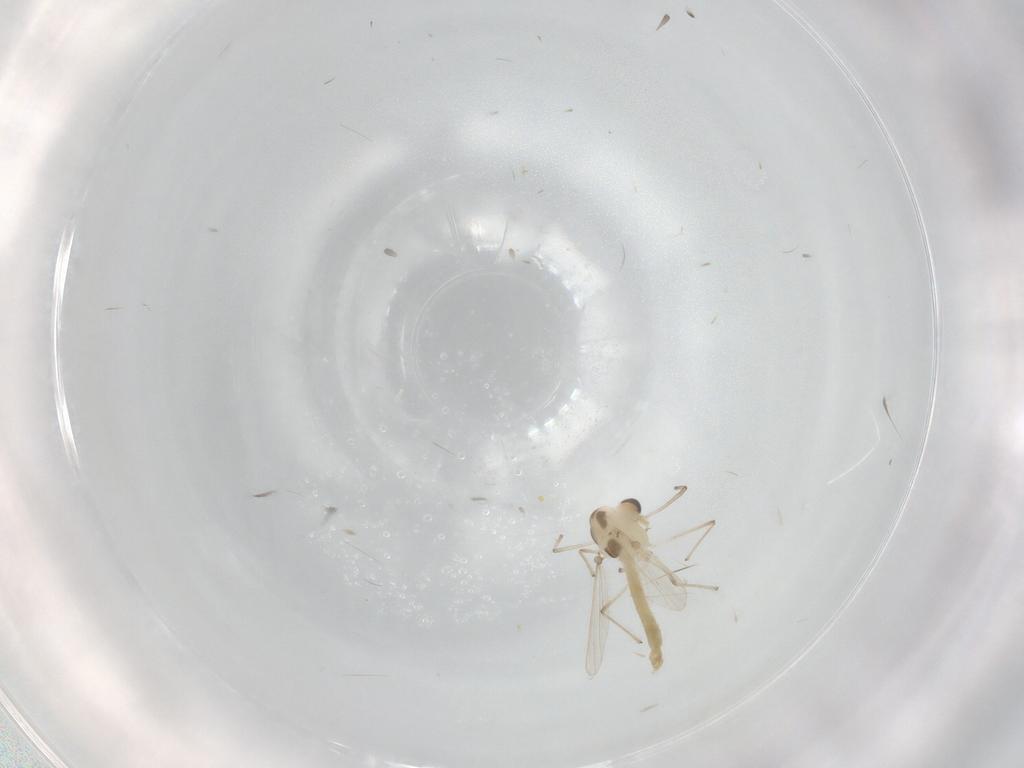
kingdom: Animalia
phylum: Arthropoda
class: Insecta
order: Diptera
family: Chironomidae
